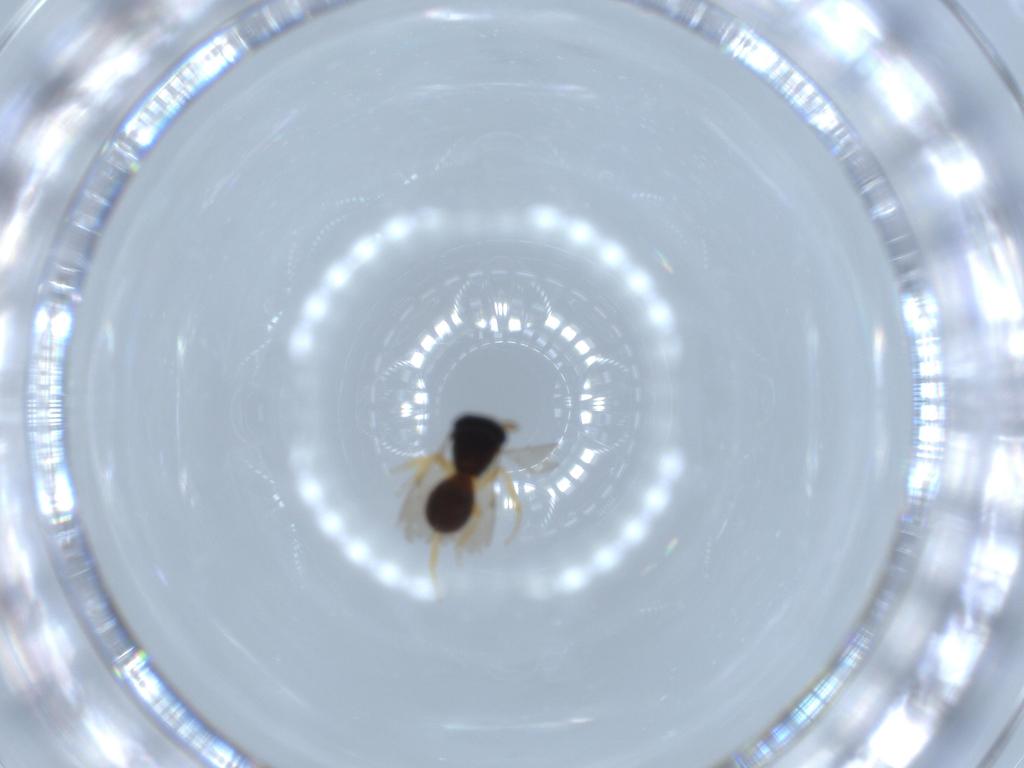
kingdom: Animalia
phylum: Arthropoda
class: Insecta
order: Hymenoptera
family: Scelionidae
